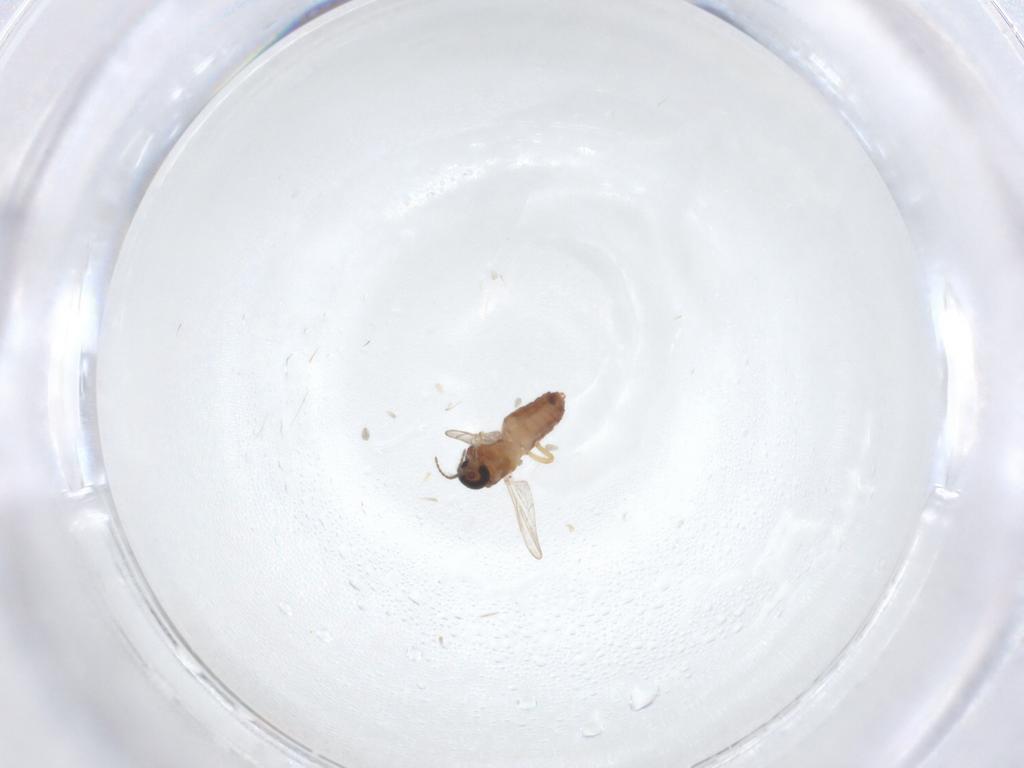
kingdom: Animalia
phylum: Arthropoda
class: Insecta
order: Diptera
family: Ceratopogonidae
